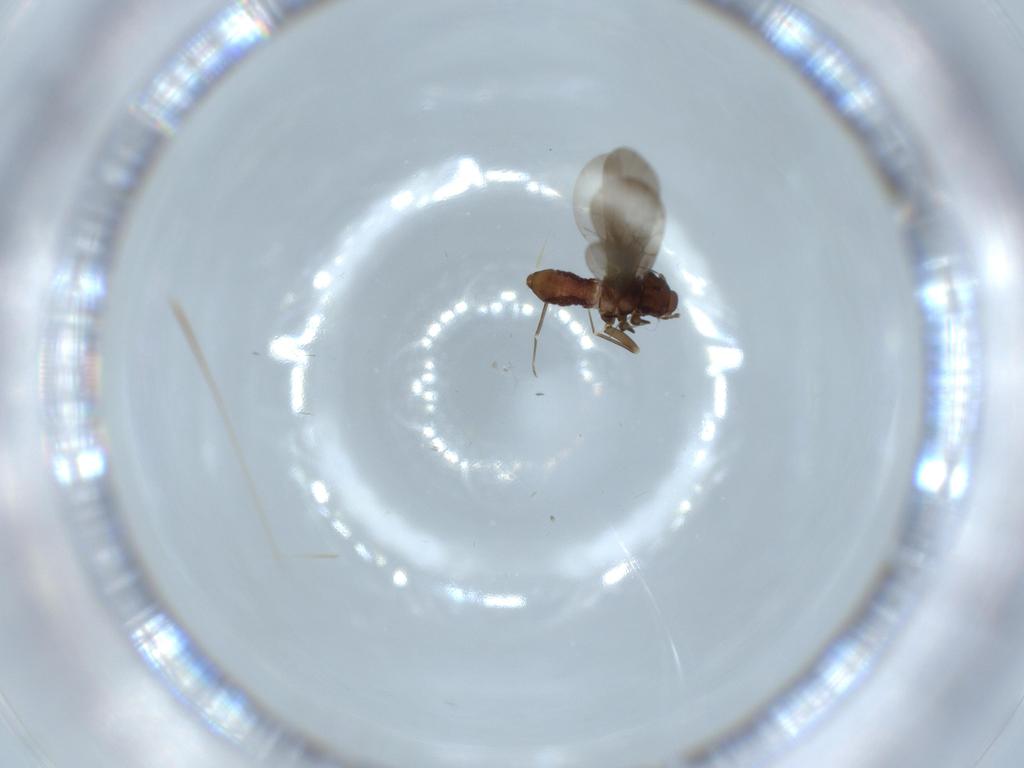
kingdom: Animalia
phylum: Arthropoda
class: Insecta
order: Psocodea
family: Lepidopsocidae
